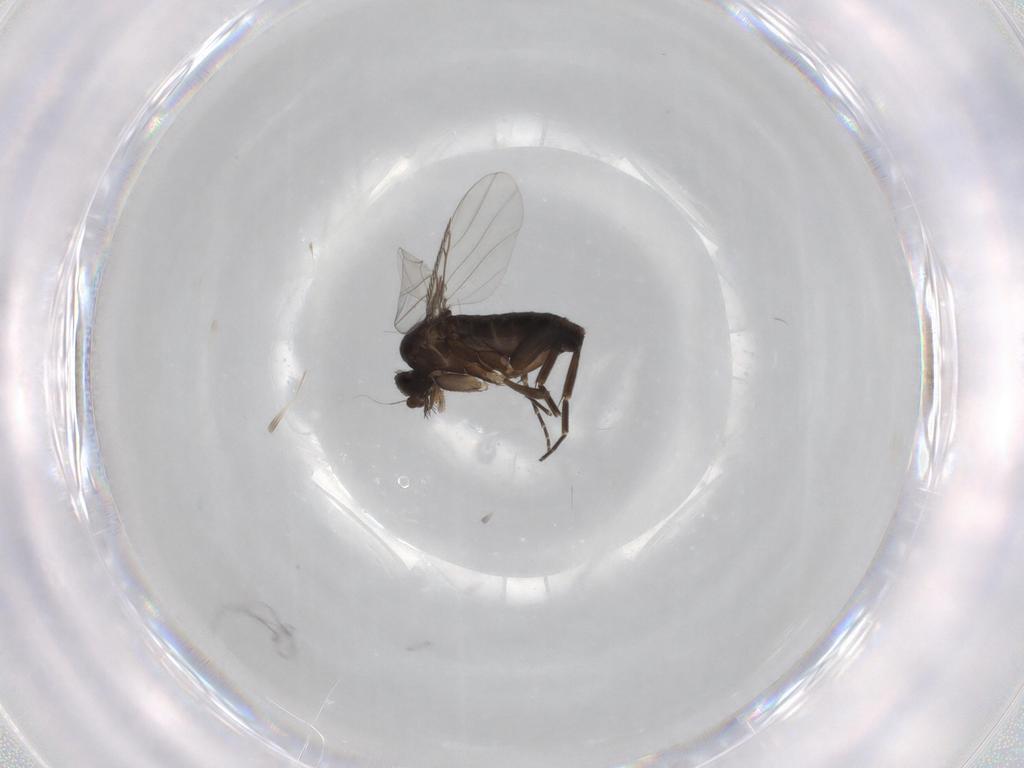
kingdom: Animalia
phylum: Arthropoda
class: Insecta
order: Diptera
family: Phoridae
